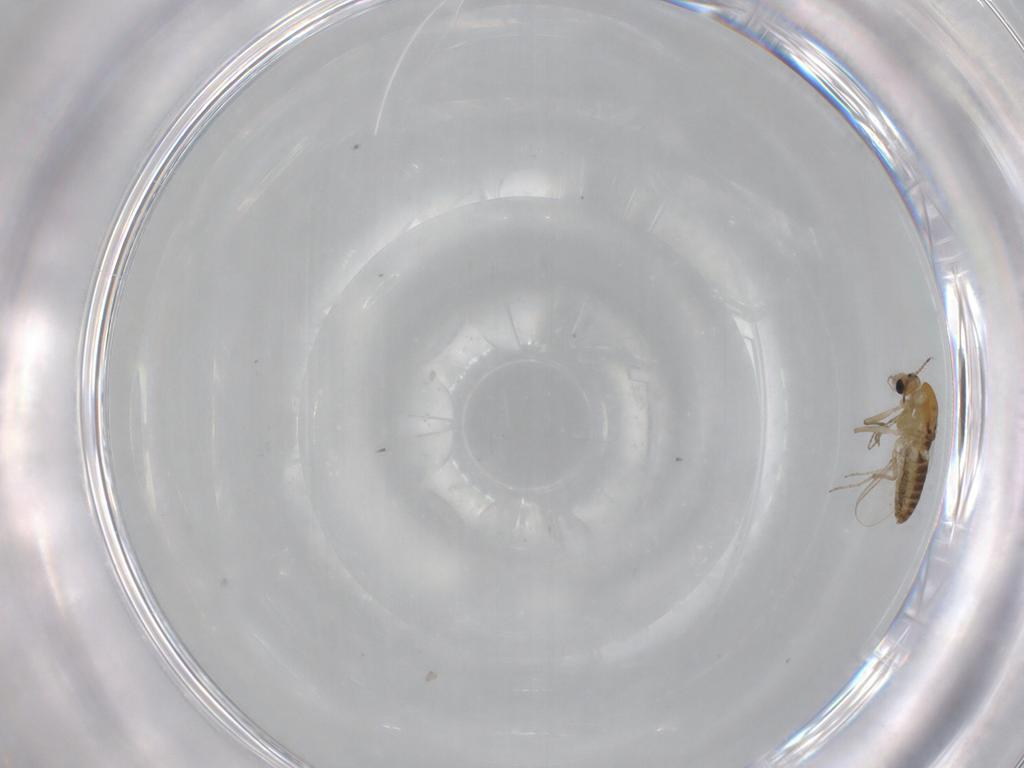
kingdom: Animalia
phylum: Arthropoda
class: Insecta
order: Diptera
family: Chironomidae
